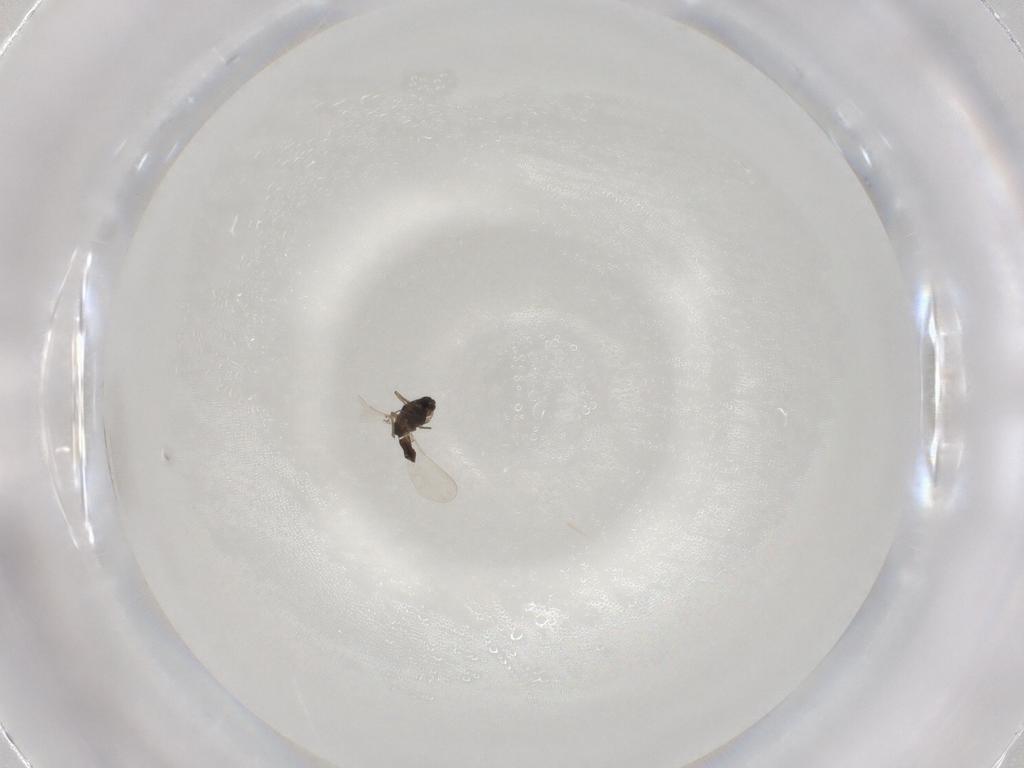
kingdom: Animalia
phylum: Arthropoda
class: Insecta
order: Diptera
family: Chironomidae
